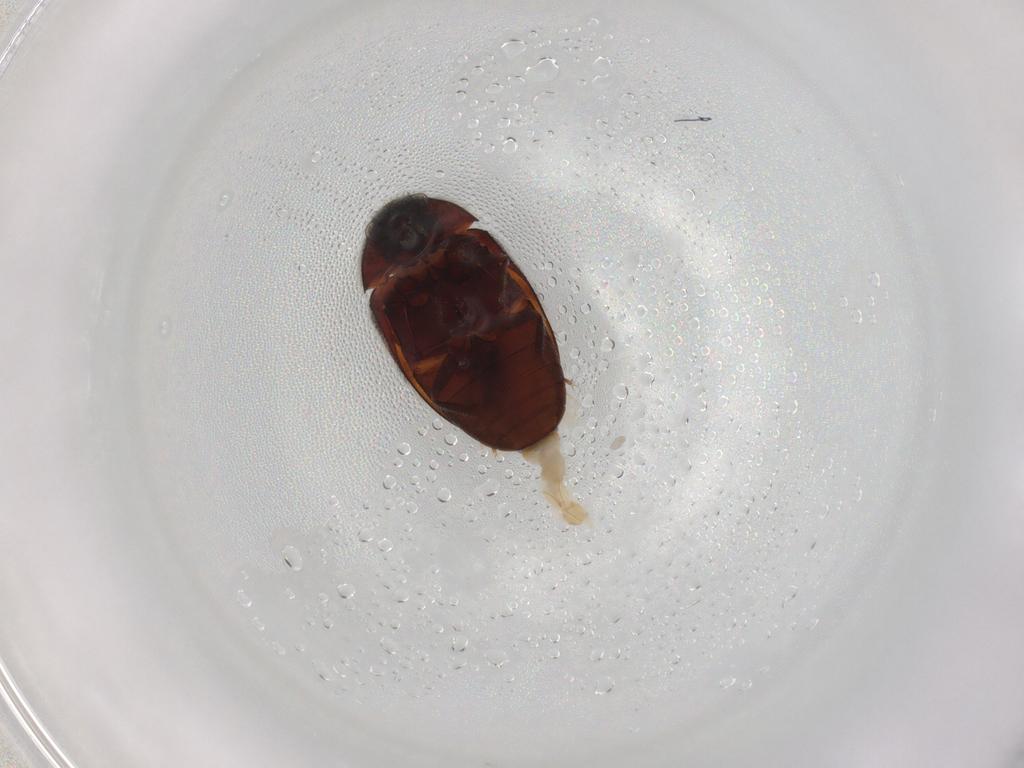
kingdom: Animalia
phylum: Arthropoda
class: Insecta
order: Coleoptera
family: Dermestidae
